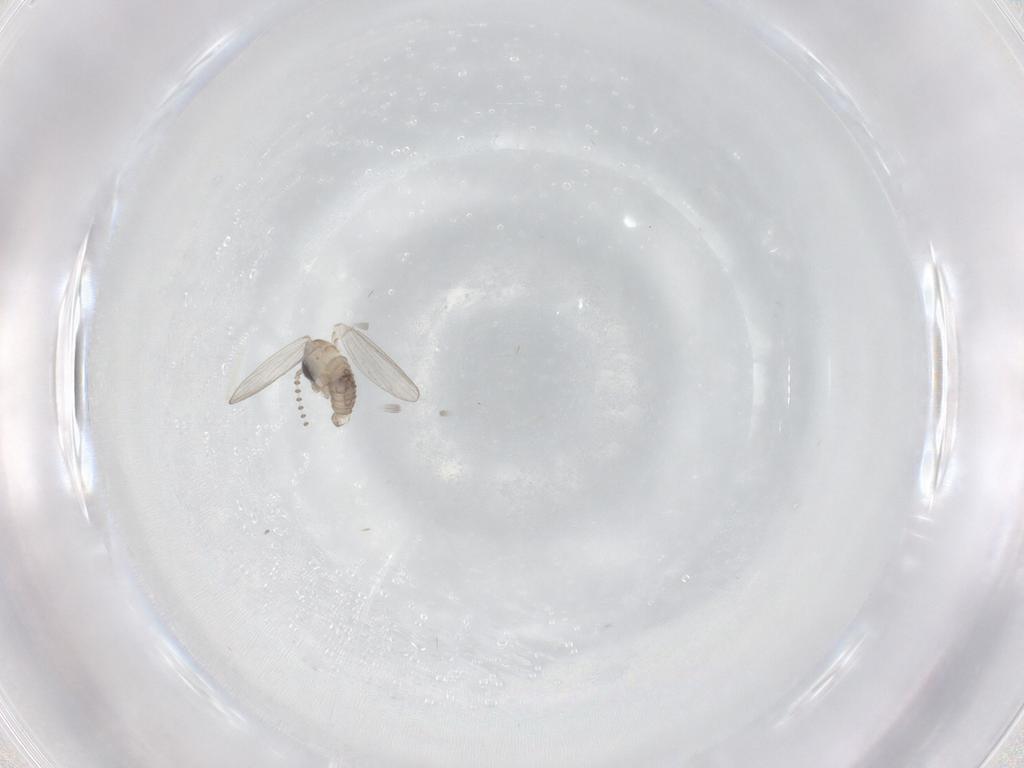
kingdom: Animalia
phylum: Arthropoda
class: Insecta
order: Diptera
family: Psychodidae
